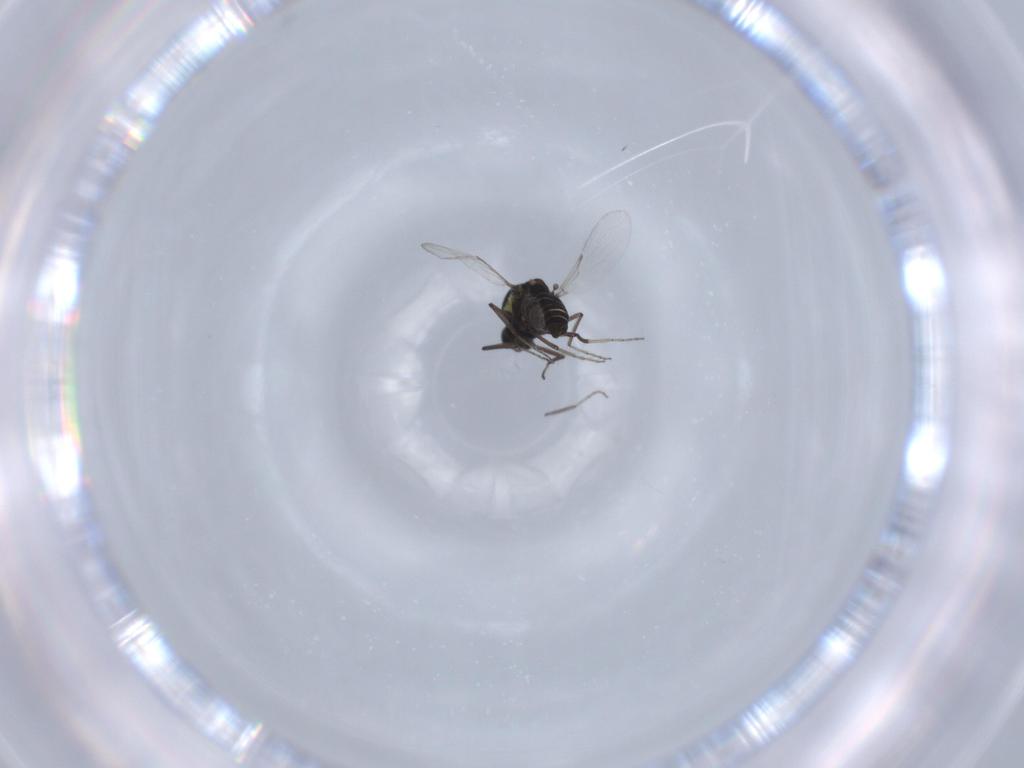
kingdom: Animalia
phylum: Arthropoda
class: Insecta
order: Diptera
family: Ceratopogonidae
